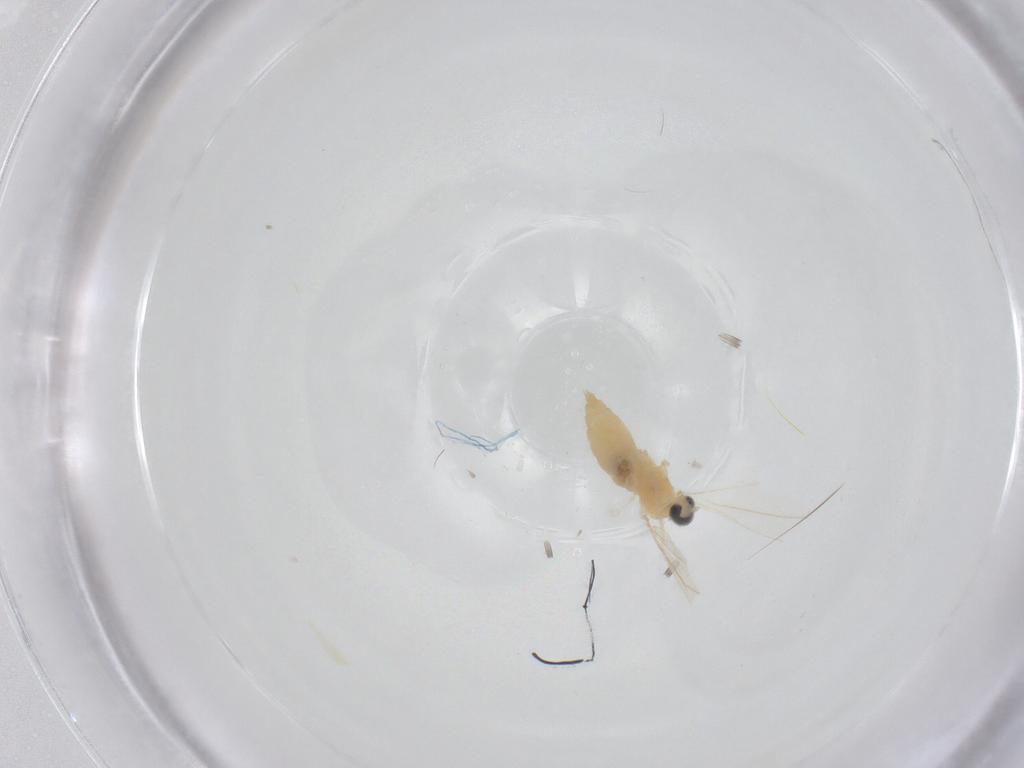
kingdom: Animalia
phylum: Arthropoda
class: Insecta
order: Diptera
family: Cecidomyiidae
